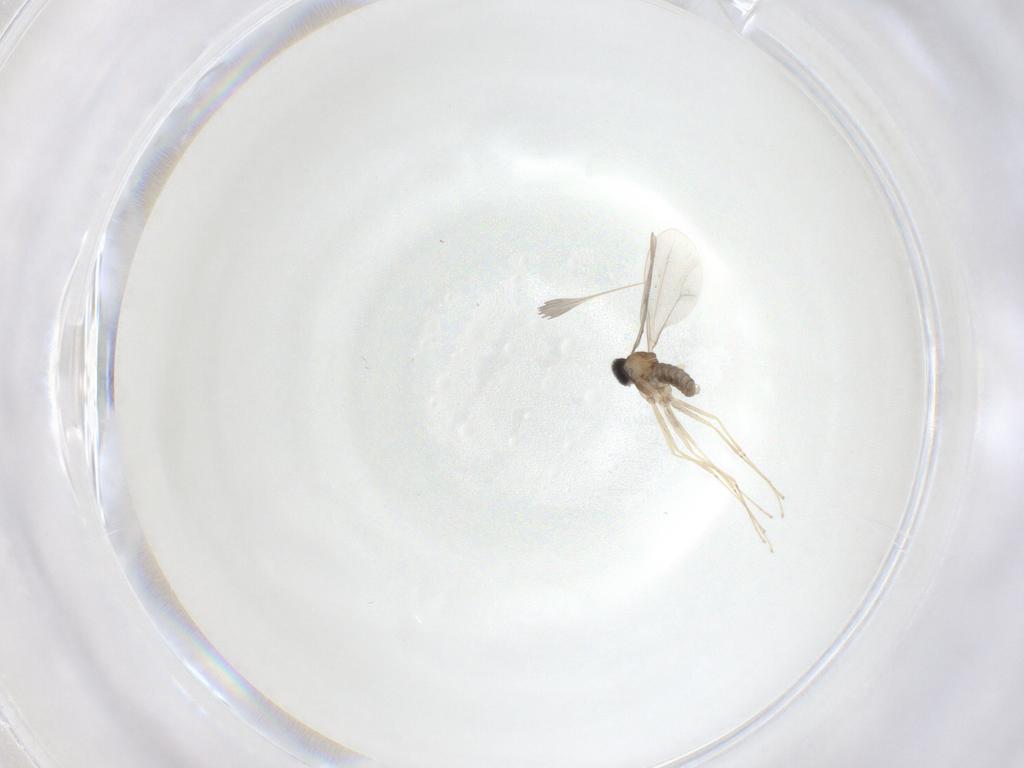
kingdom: Animalia
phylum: Arthropoda
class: Insecta
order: Diptera
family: Cecidomyiidae
